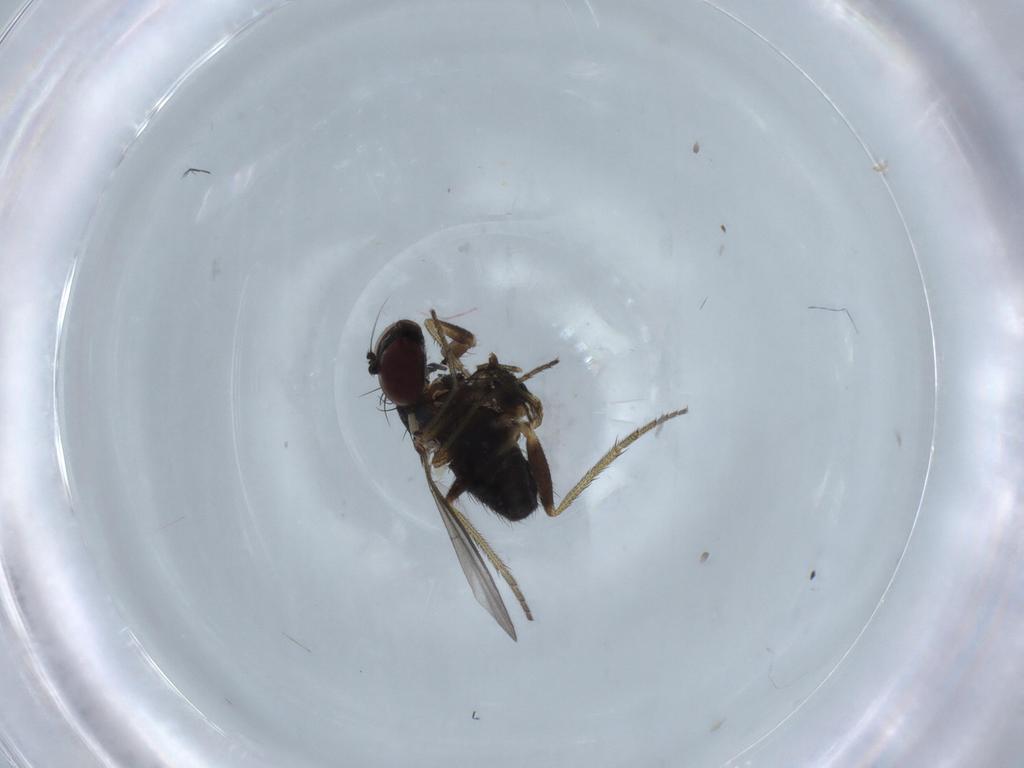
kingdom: Animalia
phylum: Arthropoda
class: Insecta
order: Diptera
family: Dolichopodidae
